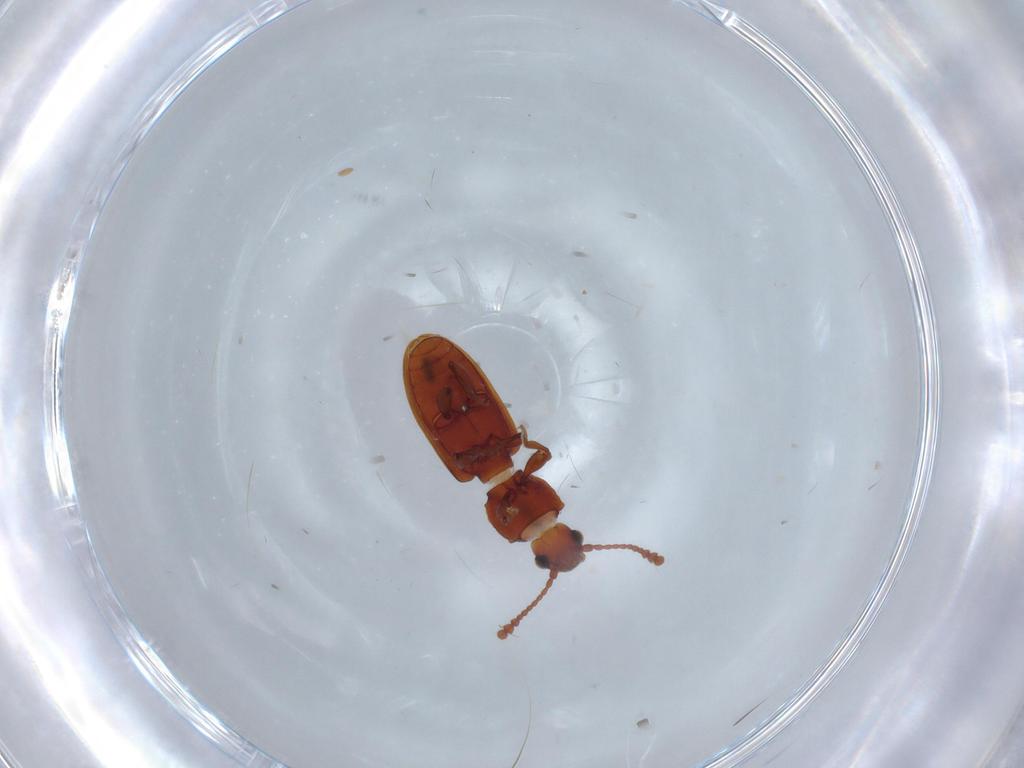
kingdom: Animalia
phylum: Arthropoda
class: Insecta
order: Coleoptera
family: Silvanidae
